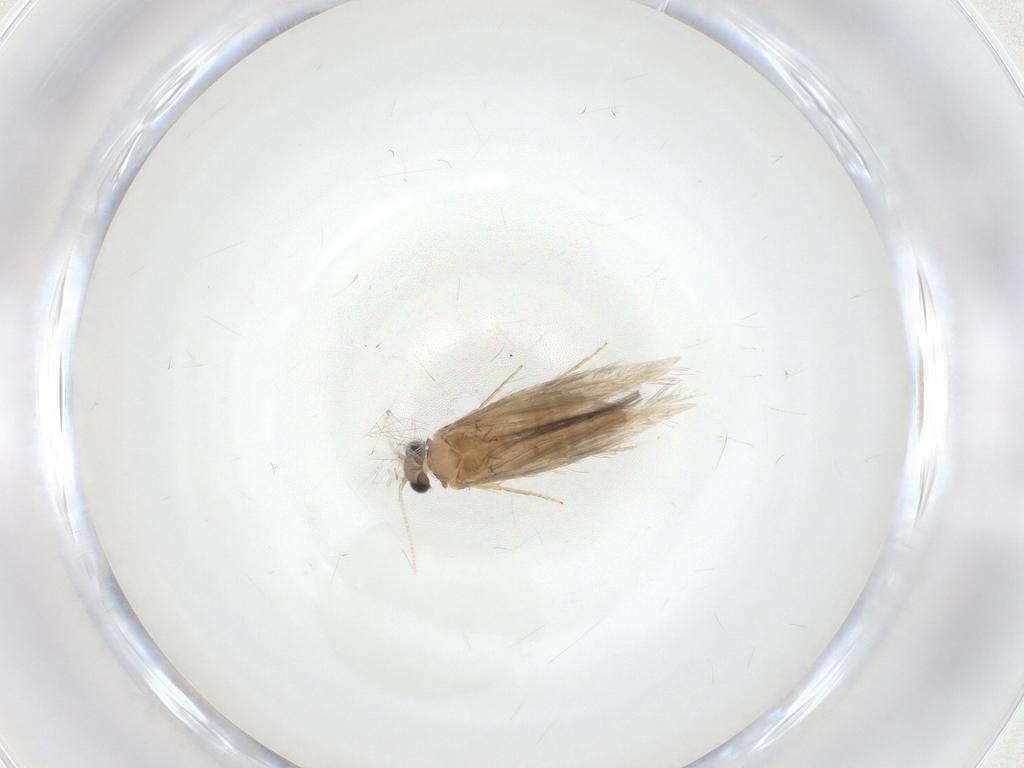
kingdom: Animalia
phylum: Arthropoda
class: Insecta
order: Trichoptera
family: Hydroptilidae
